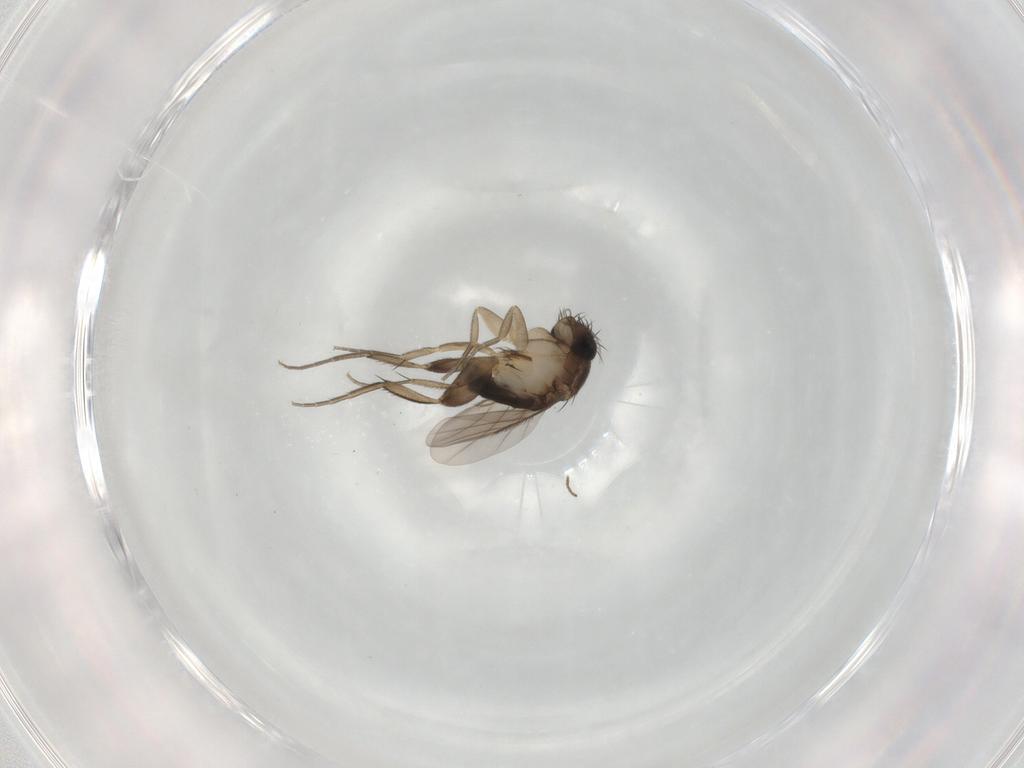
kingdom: Animalia
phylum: Arthropoda
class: Insecta
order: Diptera
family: Phoridae
